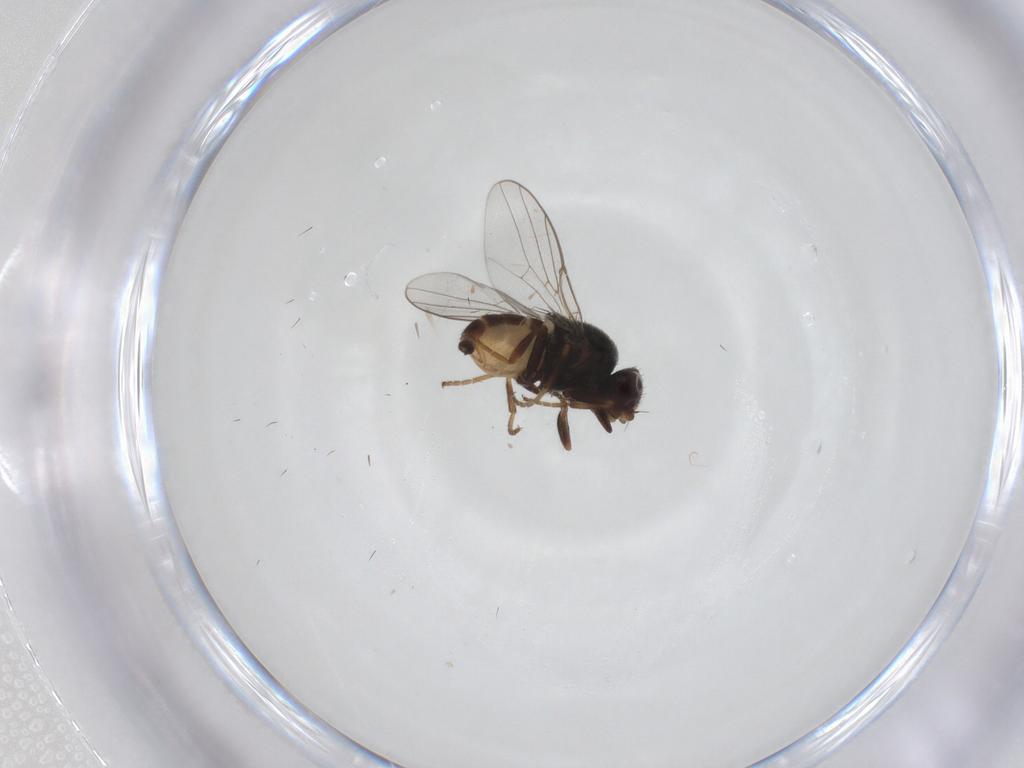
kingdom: Animalia
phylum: Arthropoda
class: Insecta
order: Diptera
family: Chloropidae
